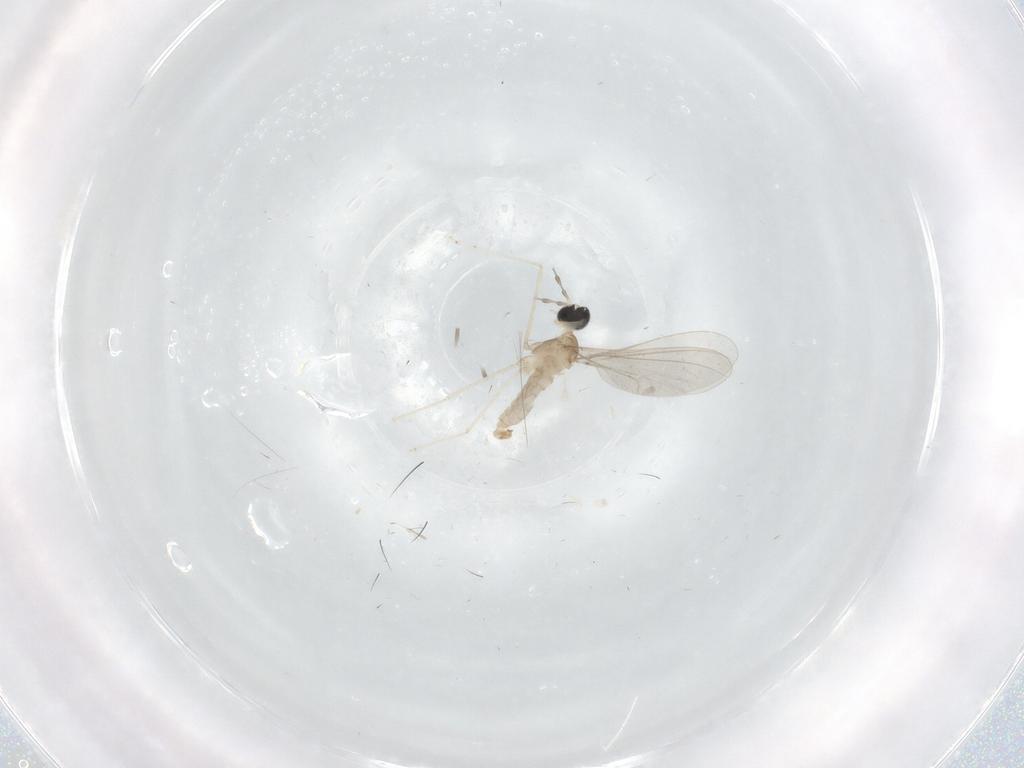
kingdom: Animalia
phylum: Arthropoda
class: Insecta
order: Diptera
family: Cecidomyiidae
